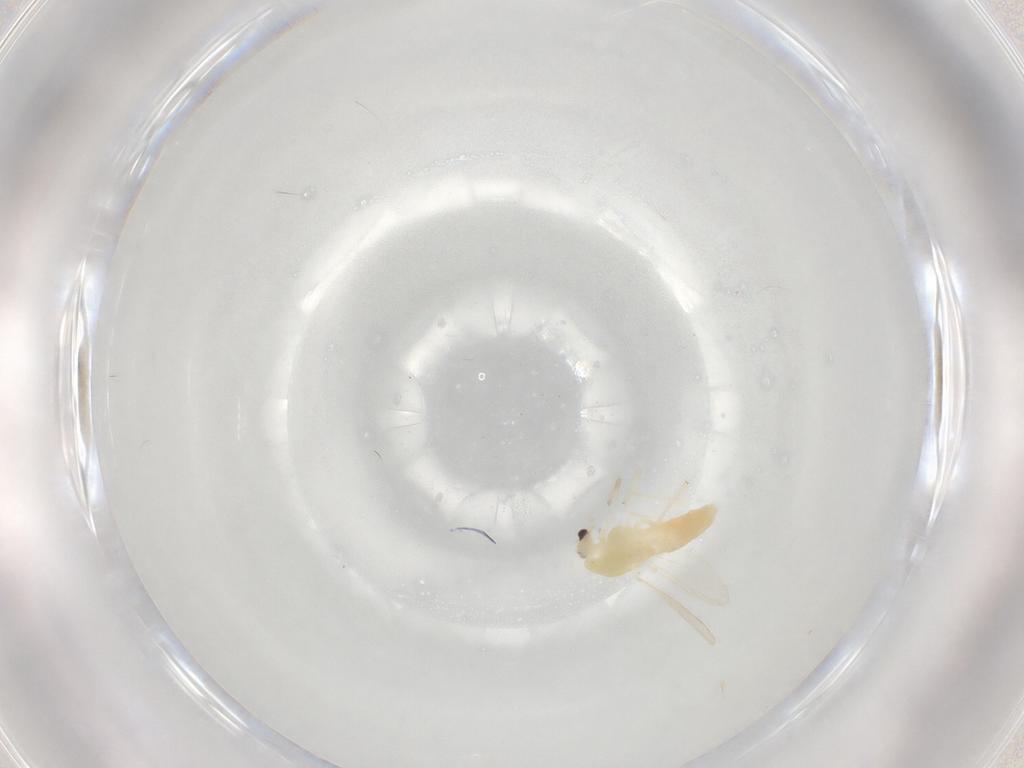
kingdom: Animalia
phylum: Arthropoda
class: Insecta
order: Diptera
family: Chironomidae
